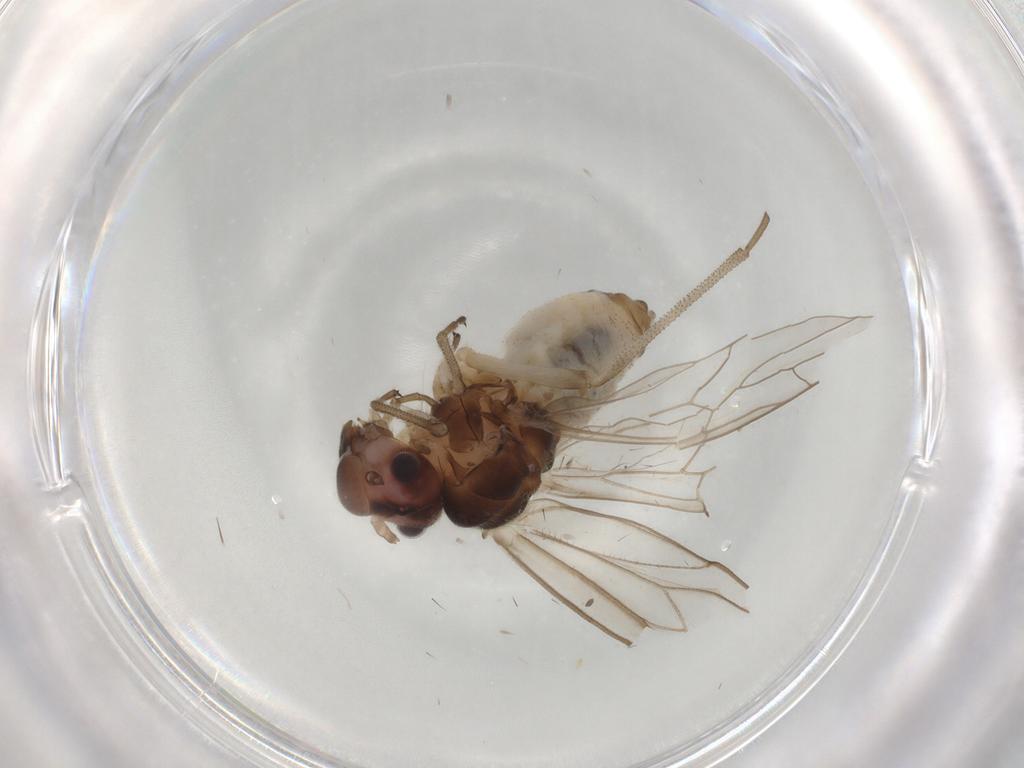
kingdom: Animalia
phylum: Arthropoda
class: Insecta
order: Psocodea
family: Stenopsocidae
